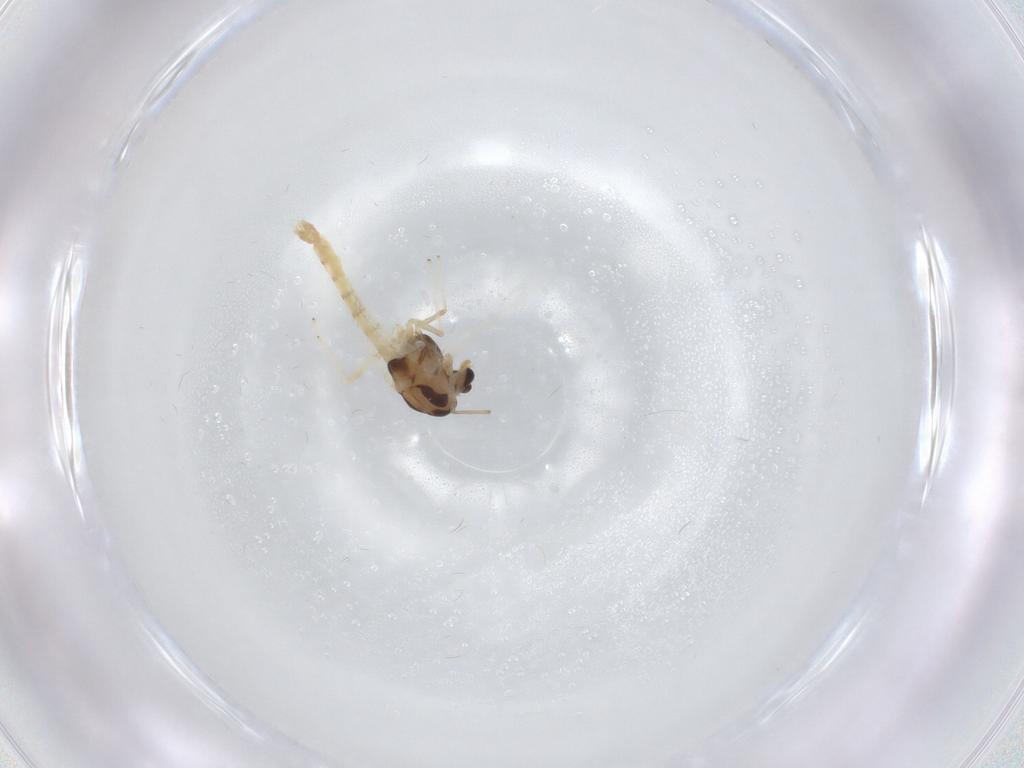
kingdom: Animalia
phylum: Arthropoda
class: Insecta
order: Diptera
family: Chironomidae
